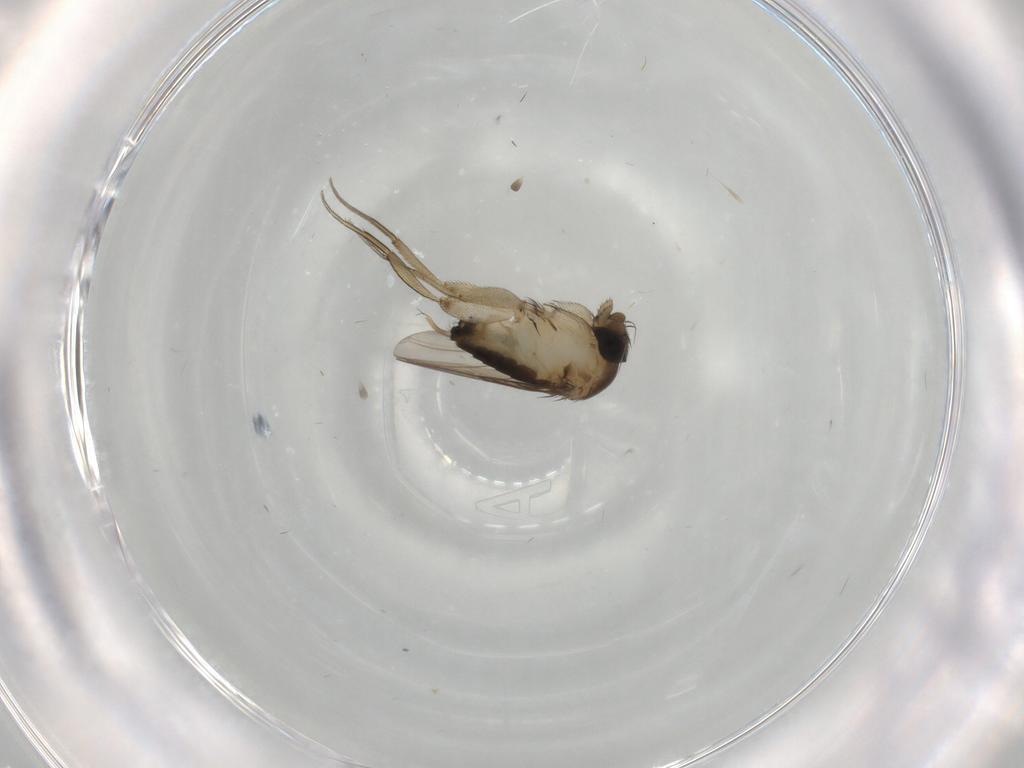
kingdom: Animalia
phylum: Arthropoda
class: Insecta
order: Diptera
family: Phoridae
